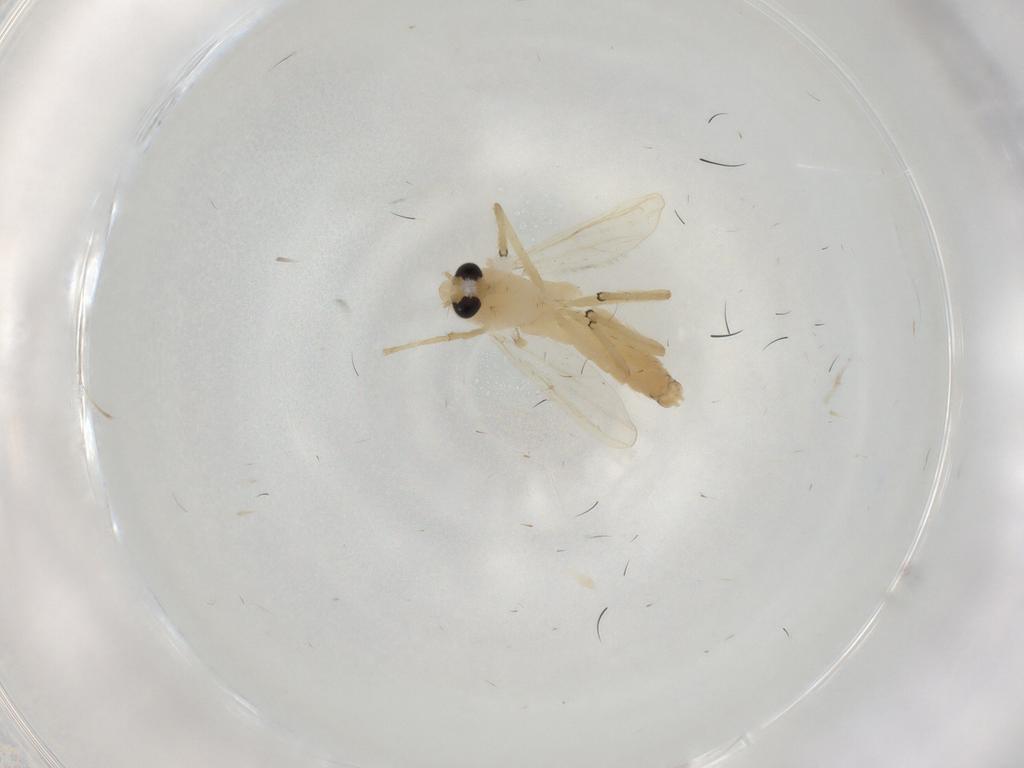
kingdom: Animalia
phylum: Arthropoda
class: Insecta
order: Diptera
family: Chironomidae
